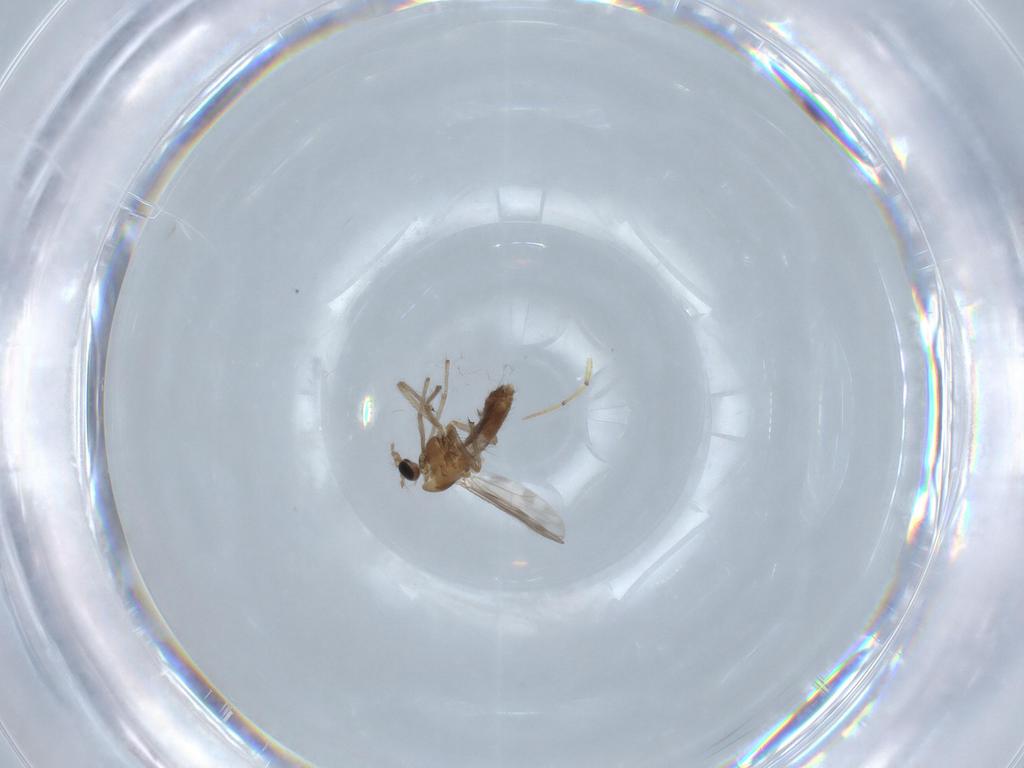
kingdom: Animalia
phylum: Arthropoda
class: Insecta
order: Diptera
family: Chironomidae
